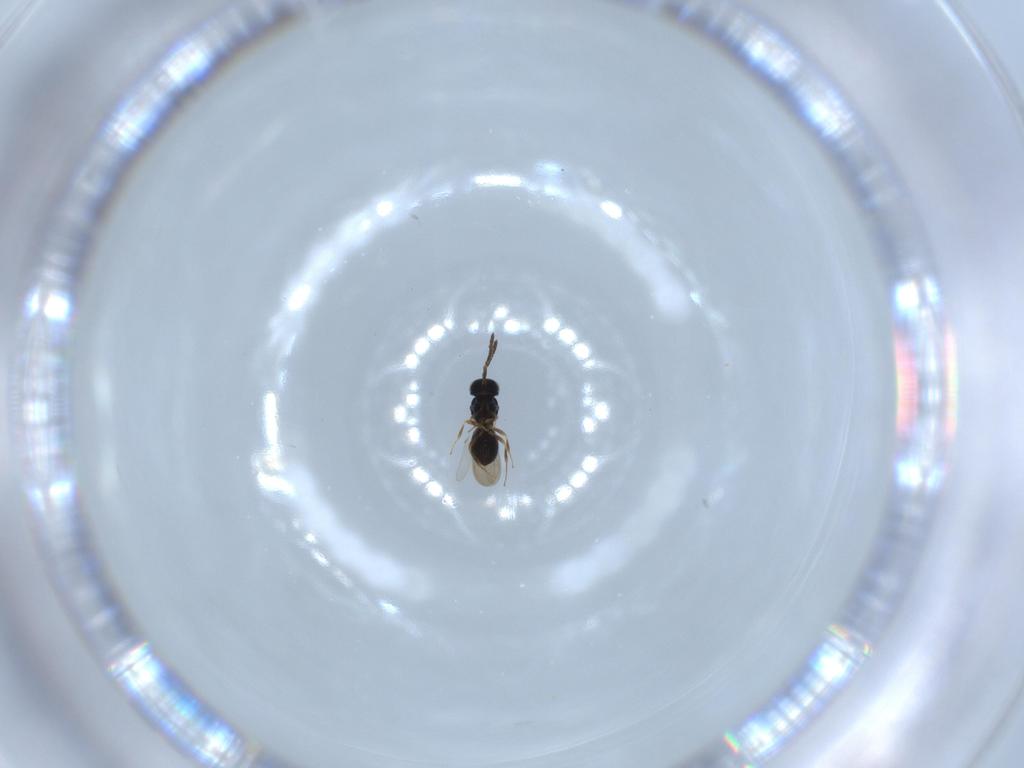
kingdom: Animalia
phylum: Arthropoda
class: Insecta
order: Hymenoptera
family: Scelionidae
